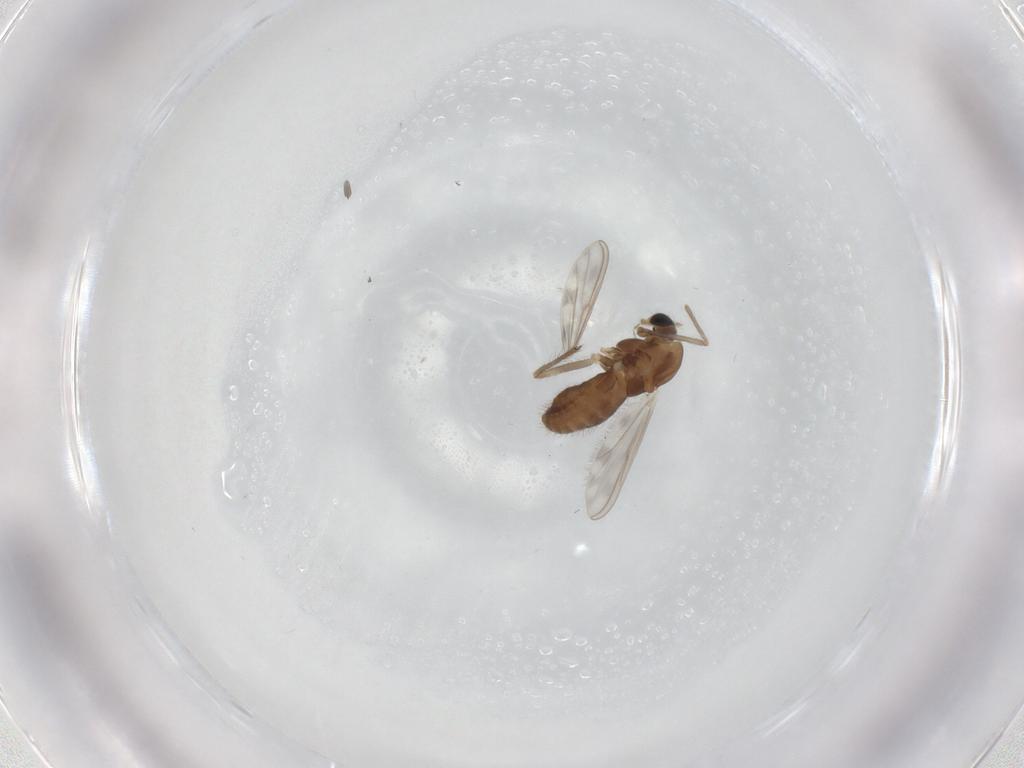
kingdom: Animalia
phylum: Arthropoda
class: Insecta
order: Diptera
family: Chironomidae
